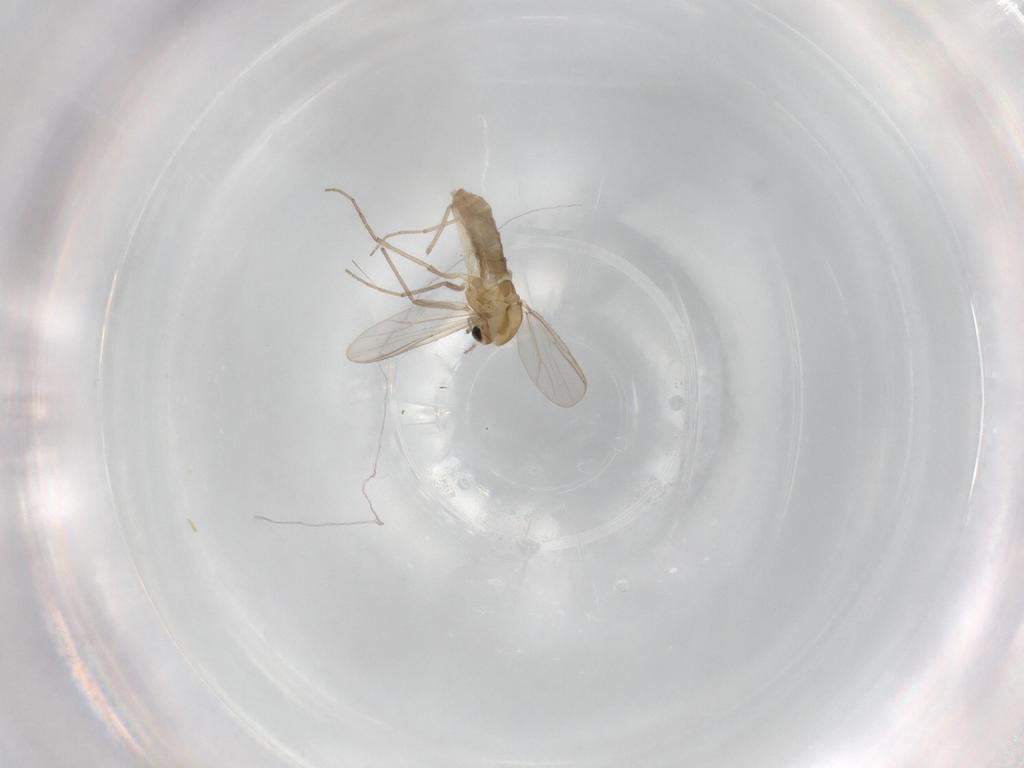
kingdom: Animalia
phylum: Arthropoda
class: Insecta
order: Diptera
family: Chironomidae
